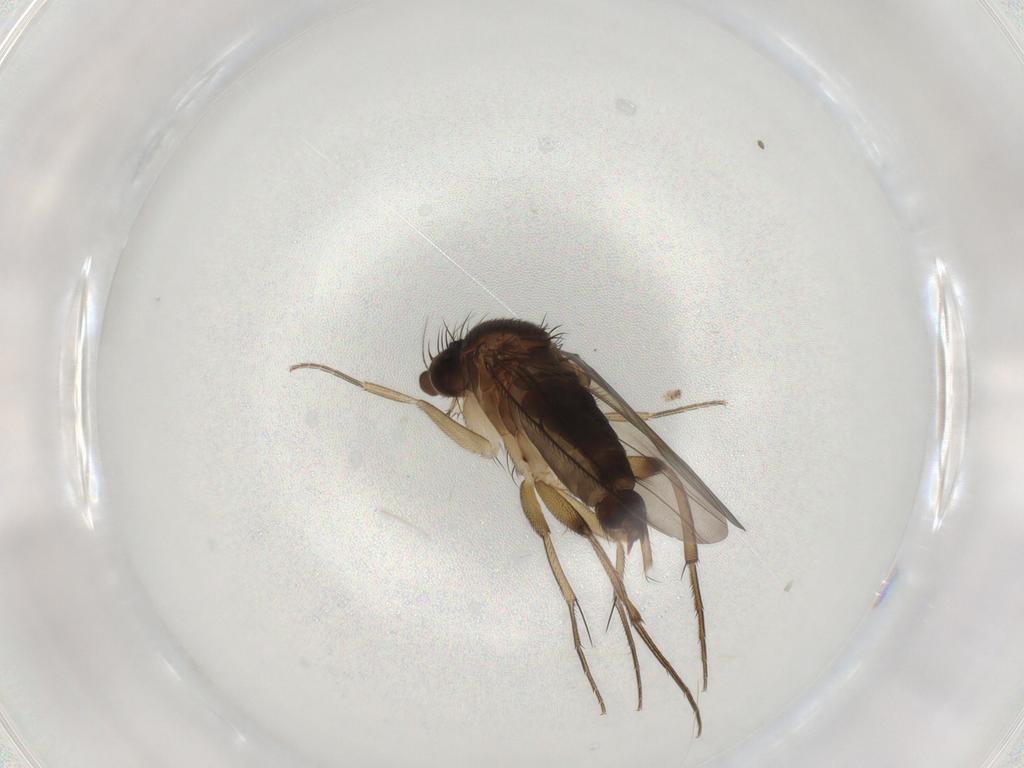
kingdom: Animalia
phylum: Arthropoda
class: Insecta
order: Diptera
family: Phoridae
